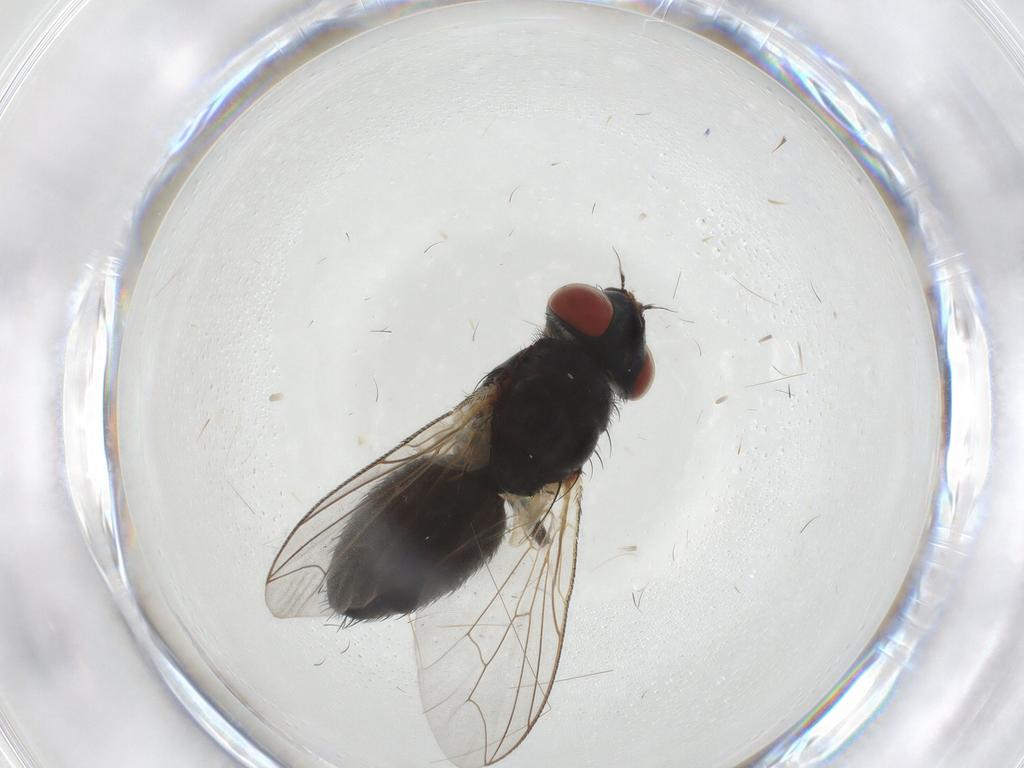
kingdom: Animalia
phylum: Arthropoda
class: Insecta
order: Diptera
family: Sarcophagidae
